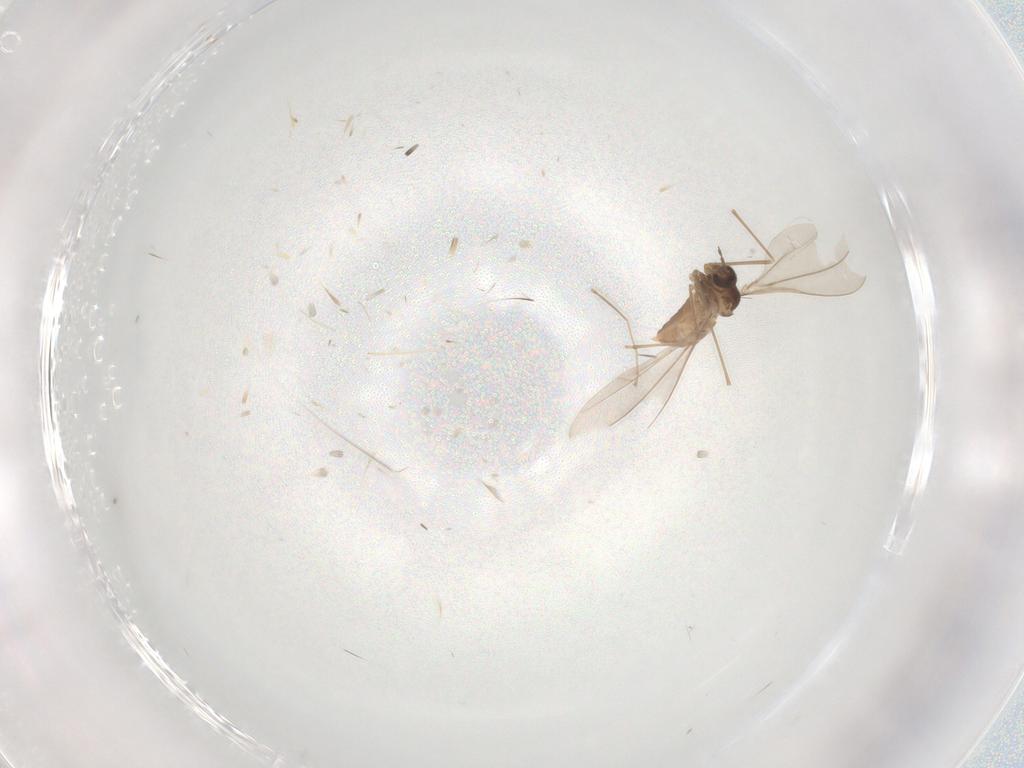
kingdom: Animalia
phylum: Arthropoda
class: Insecta
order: Diptera
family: Cecidomyiidae
